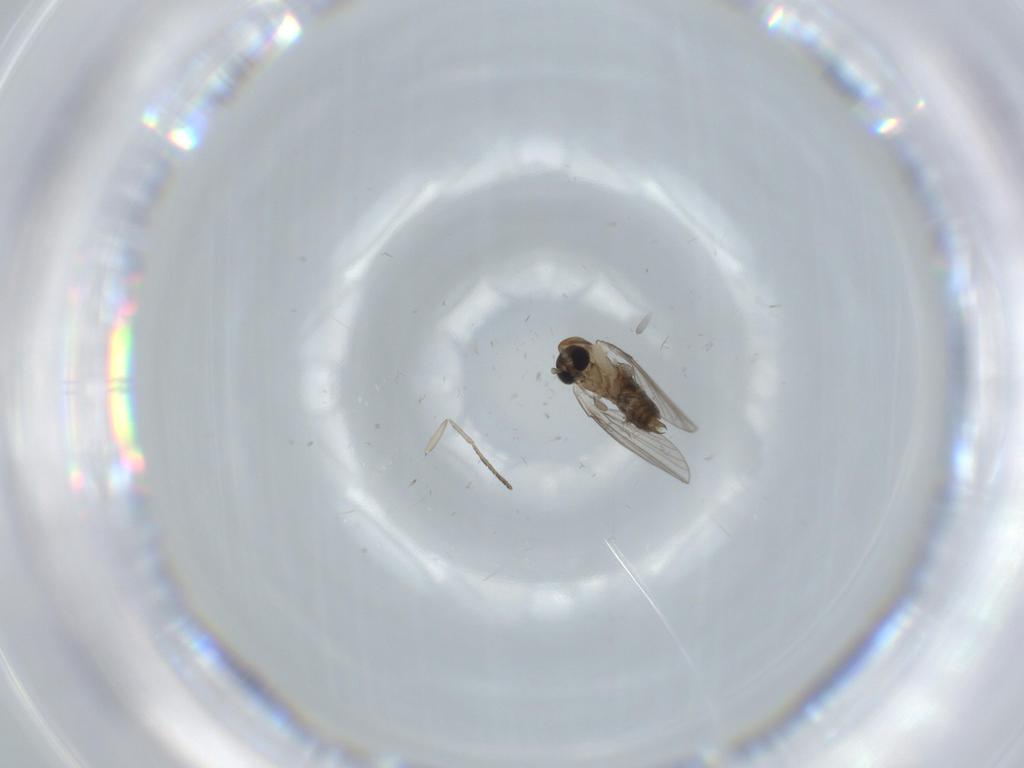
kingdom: Animalia
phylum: Arthropoda
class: Insecta
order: Diptera
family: Psychodidae
